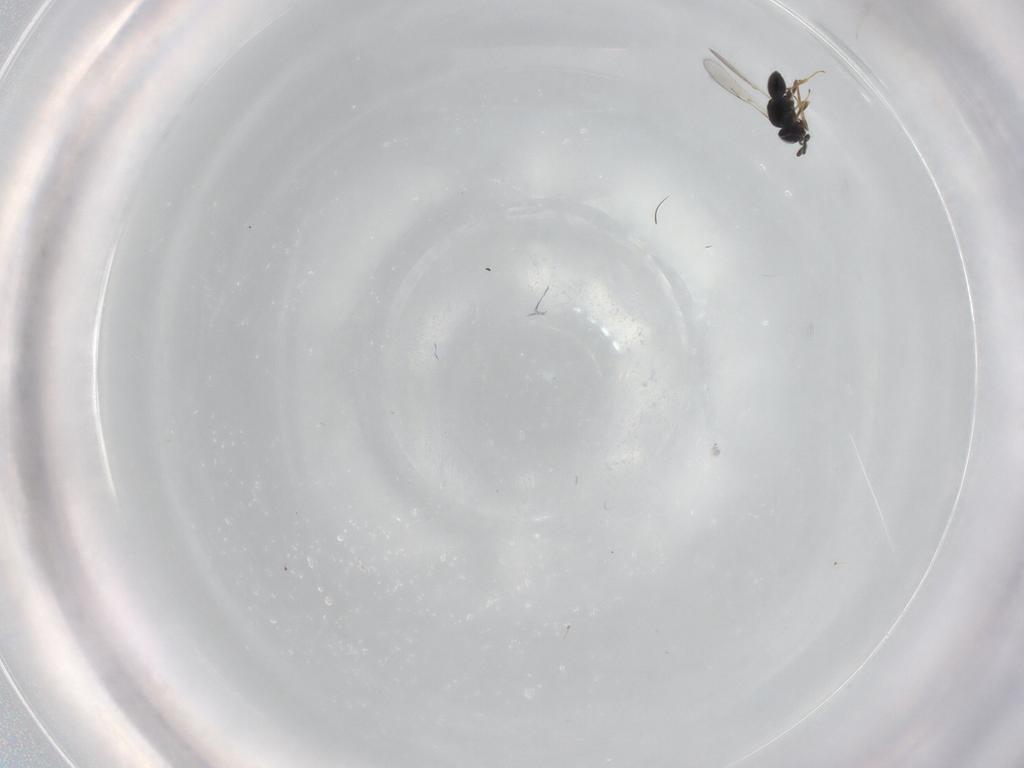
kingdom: Animalia
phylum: Arthropoda
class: Insecta
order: Hymenoptera
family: Scelionidae
